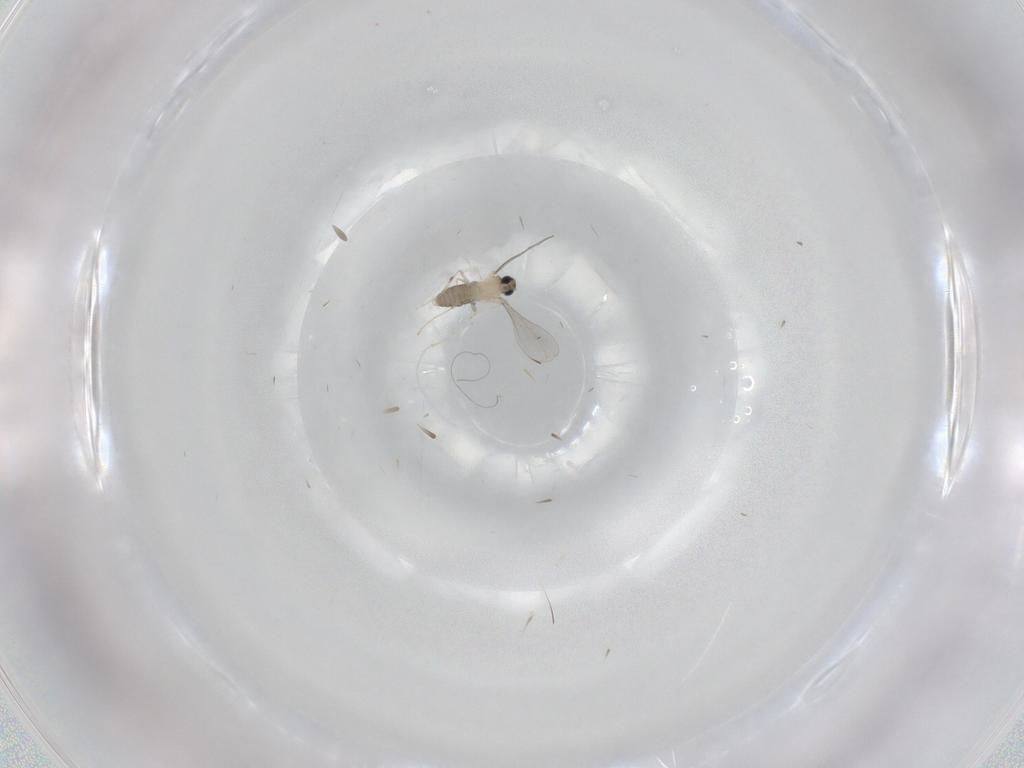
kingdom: Animalia
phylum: Arthropoda
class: Insecta
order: Diptera
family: Cecidomyiidae
